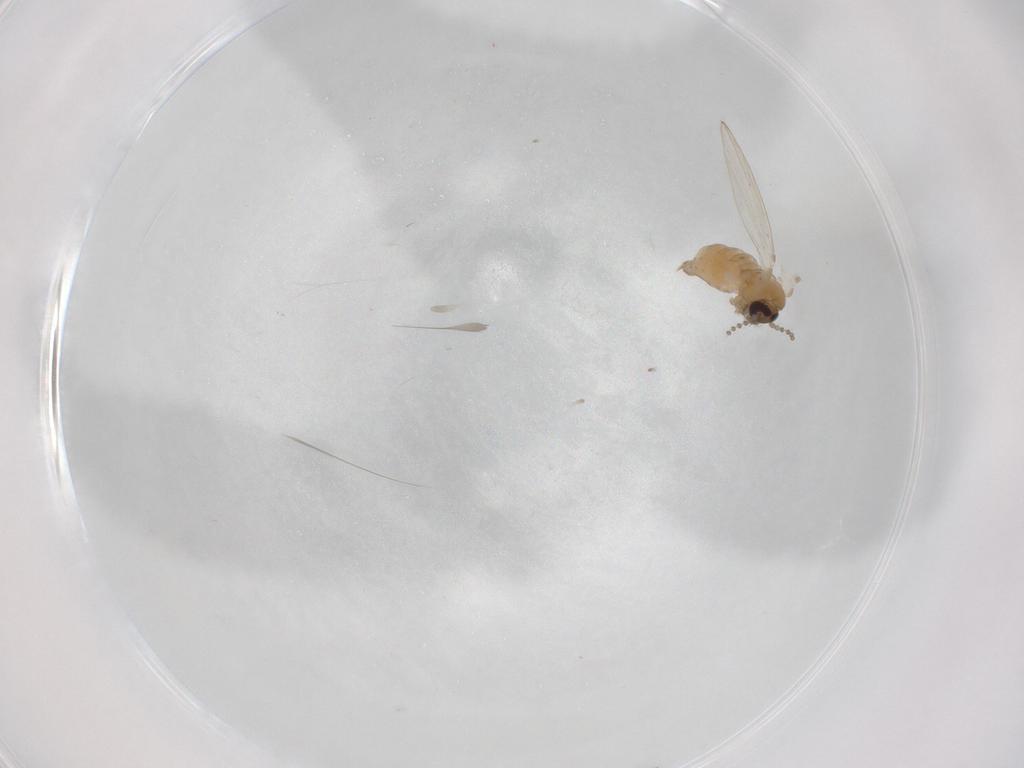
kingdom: Animalia
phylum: Arthropoda
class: Insecta
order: Diptera
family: Psychodidae
